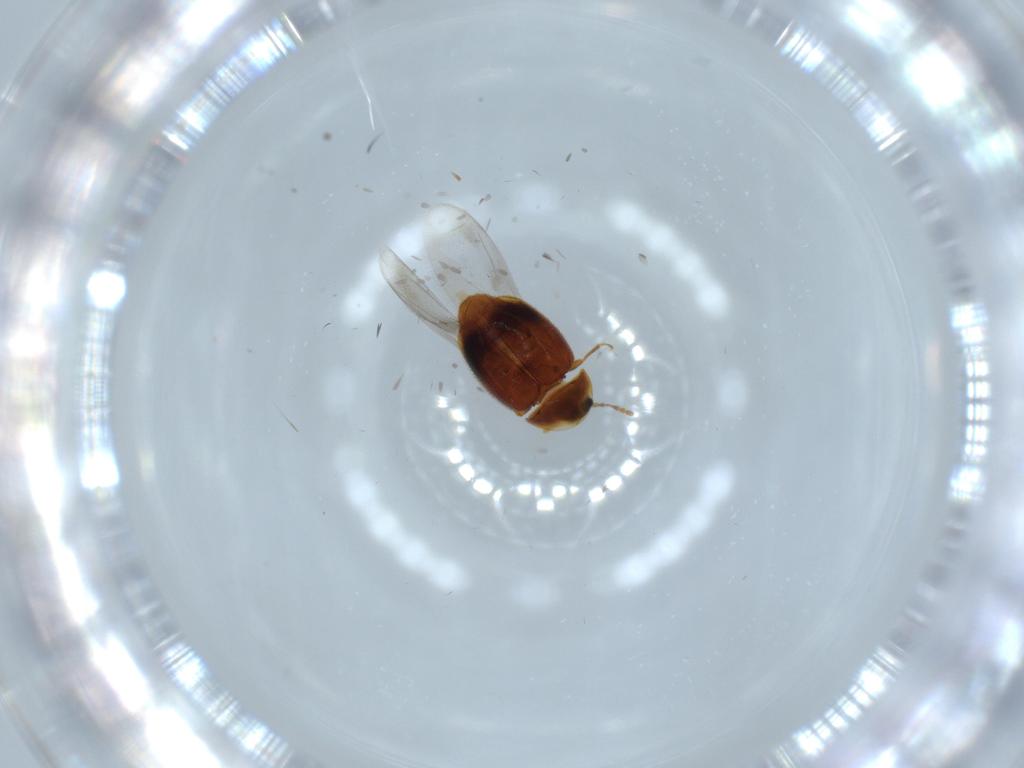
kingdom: Animalia
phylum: Arthropoda
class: Insecta
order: Coleoptera
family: Corylophidae
